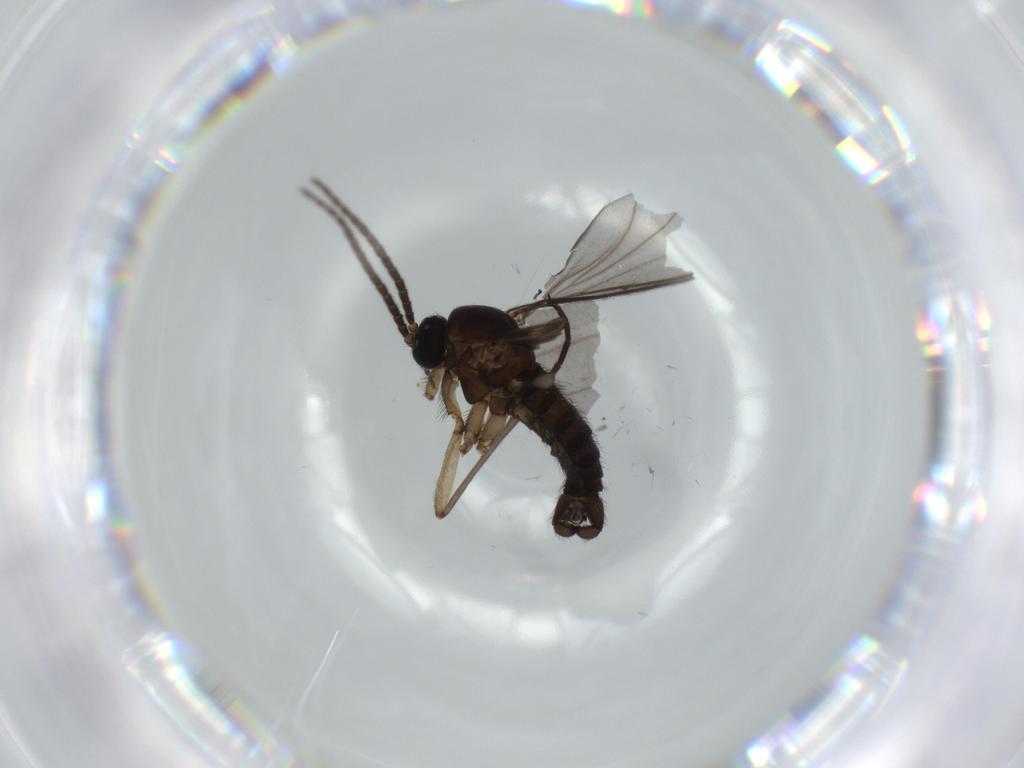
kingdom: Animalia
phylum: Arthropoda
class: Insecta
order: Diptera
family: Sciaridae
